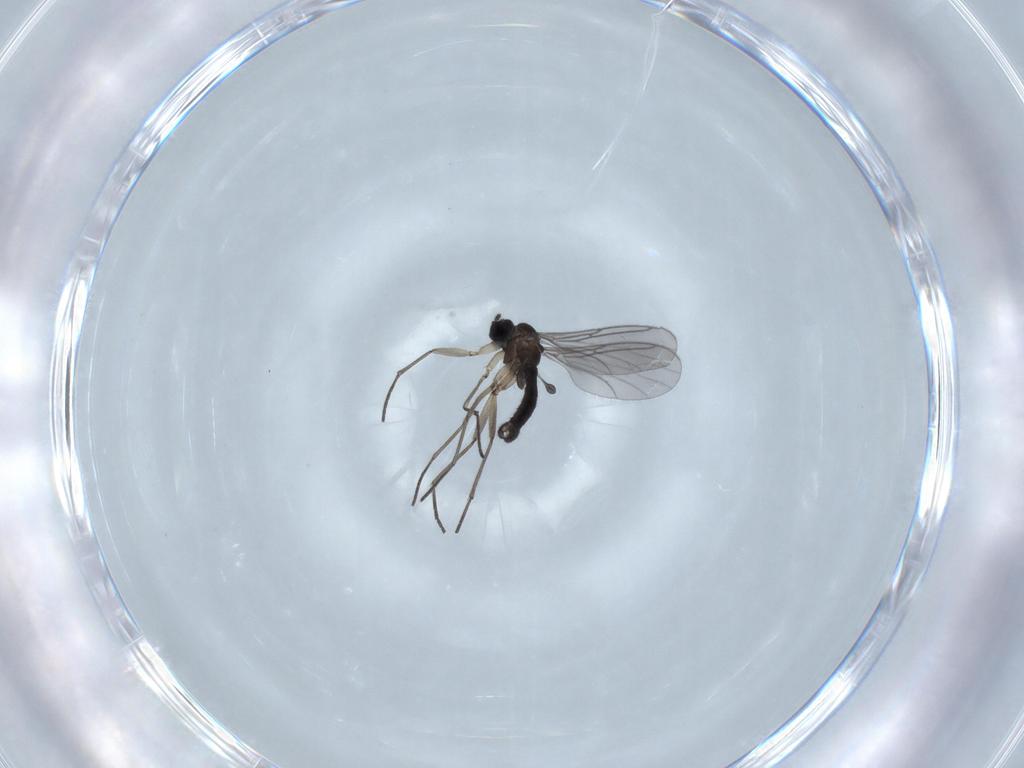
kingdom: Animalia
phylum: Arthropoda
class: Insecta
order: Diptera
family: Sciaridae
